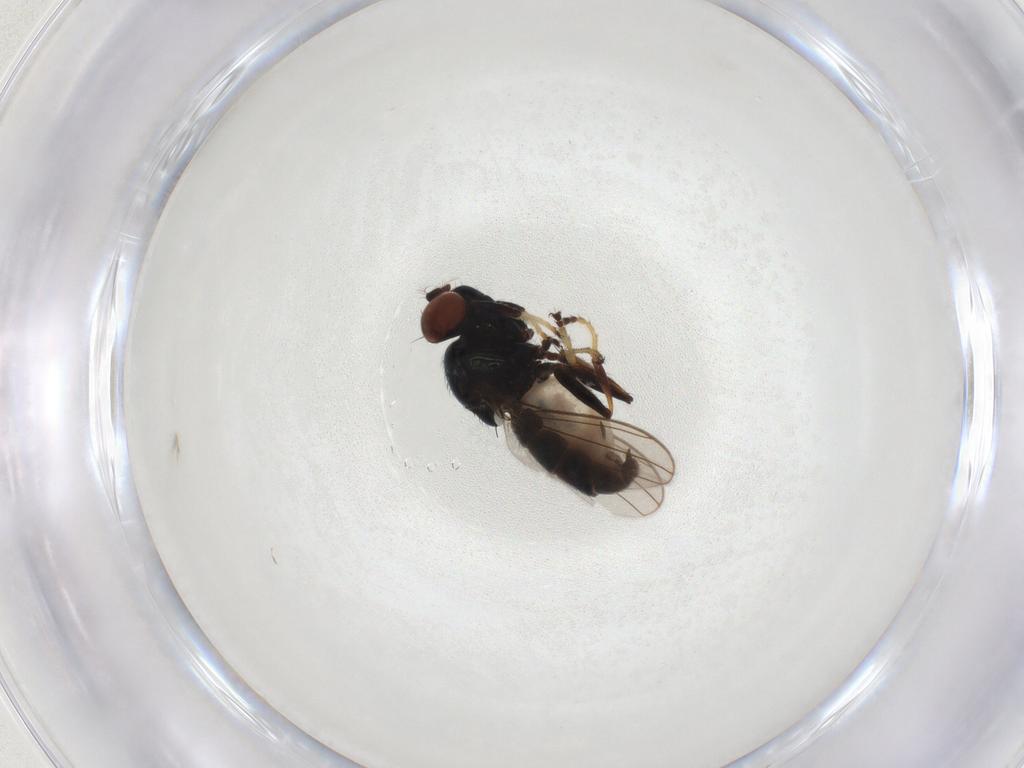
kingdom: Animalia
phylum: Arthropoda
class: Insecta
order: Diptera
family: Ephydridae
